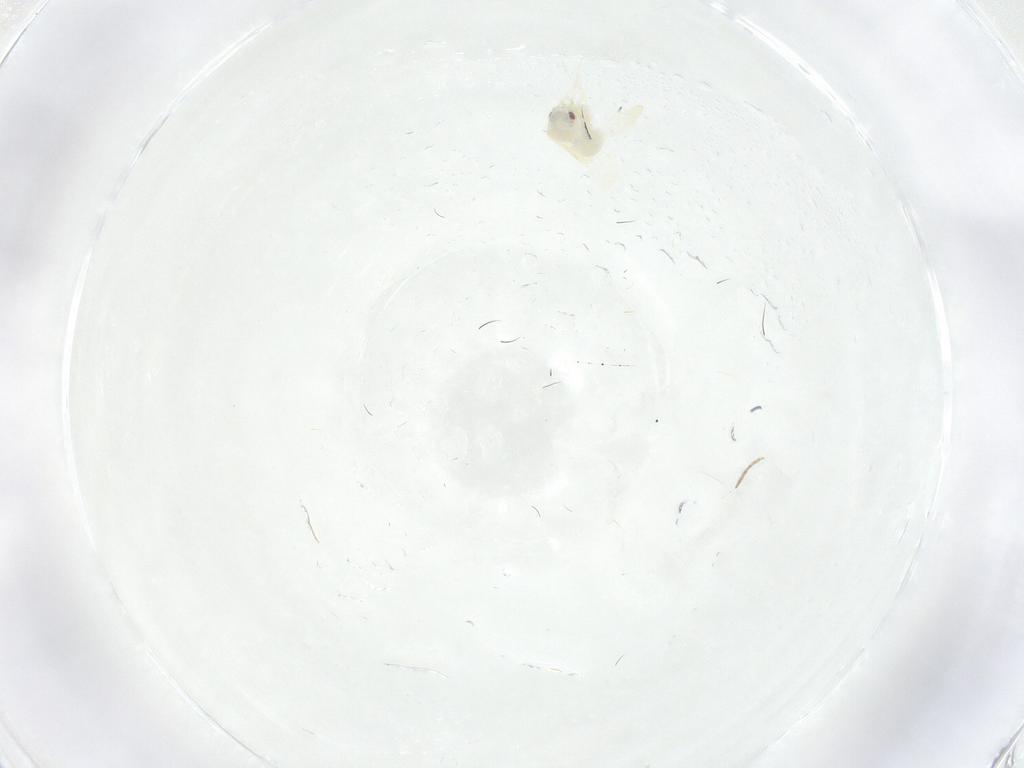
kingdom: Animalia
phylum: Arthropoda
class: Insecta
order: Hemiptera
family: Aleyrodidae
